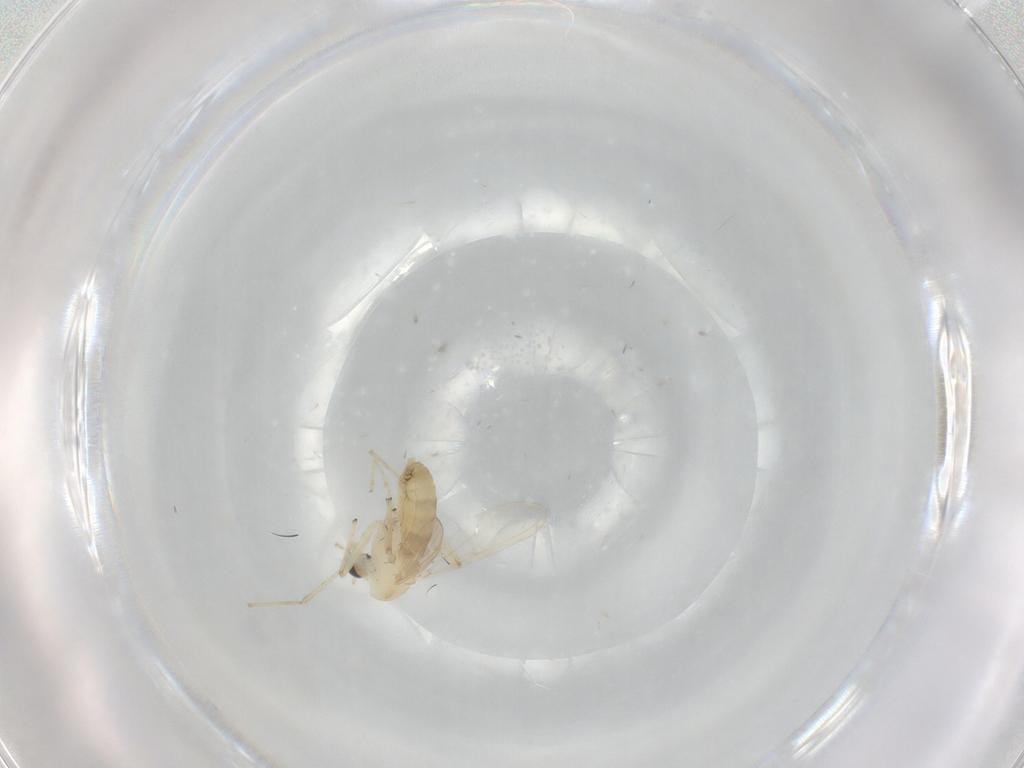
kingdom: Animalia
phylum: Arthropoda
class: Insecta
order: Diptera
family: Chironomidae
